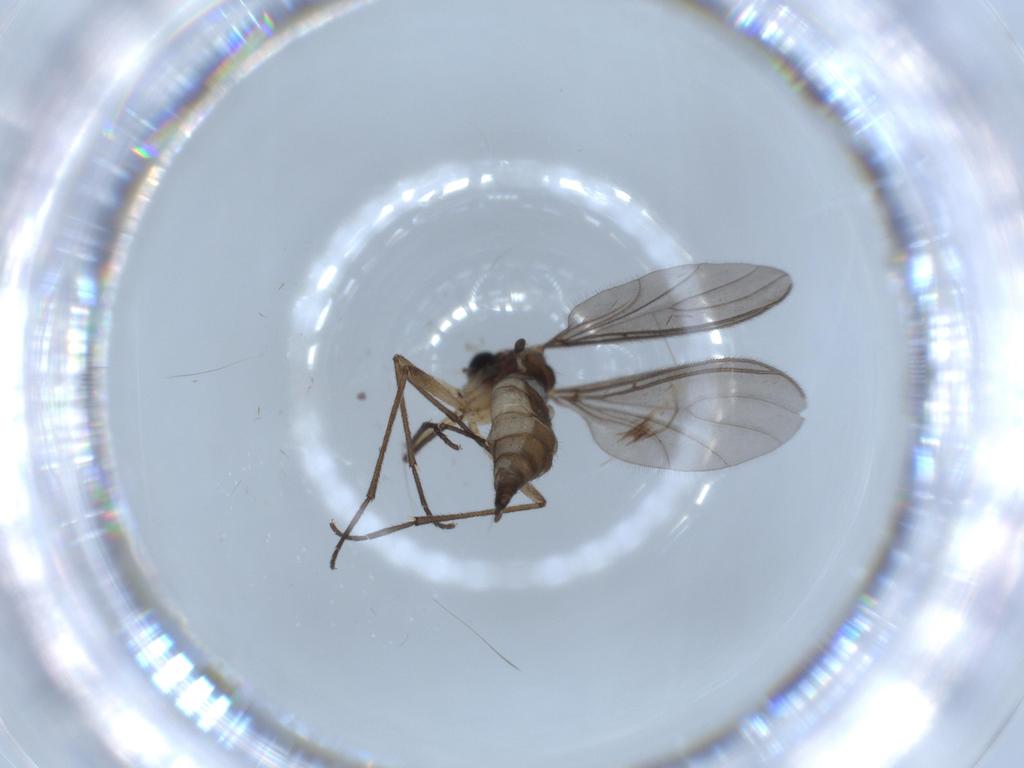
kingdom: Animalia
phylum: Arthropoda
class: Insecta
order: Diptera
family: Sciaridae
